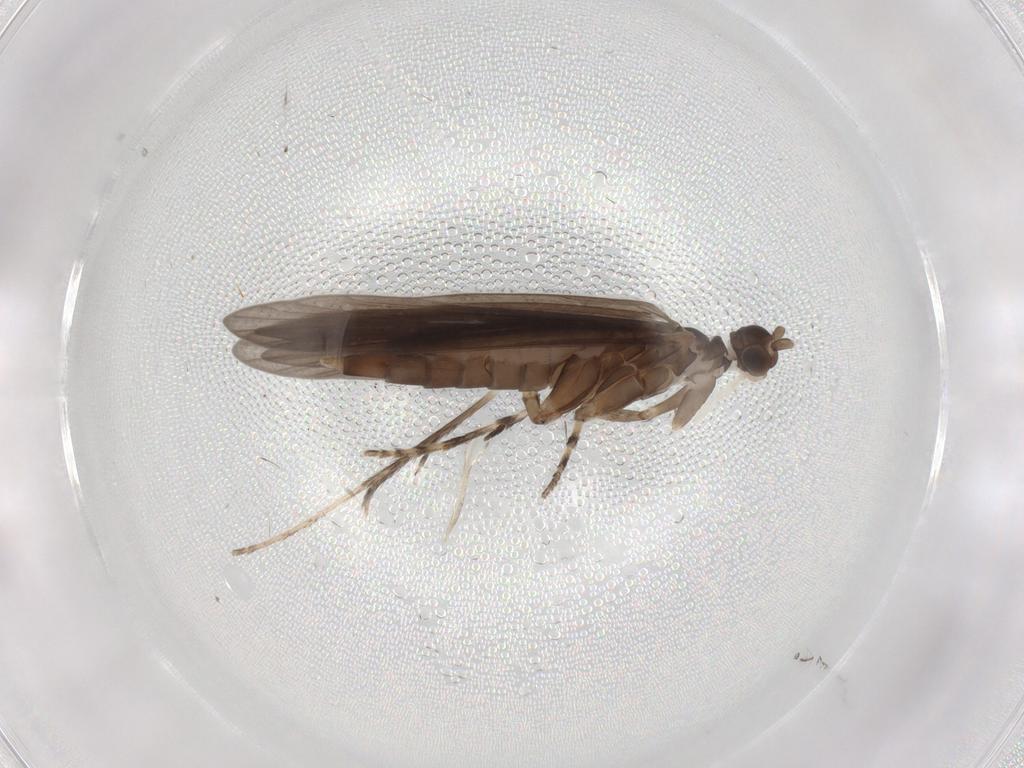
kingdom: Animalia
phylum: Arthropoda
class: Insecta
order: Trichoptera
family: Xiphocentronidae
